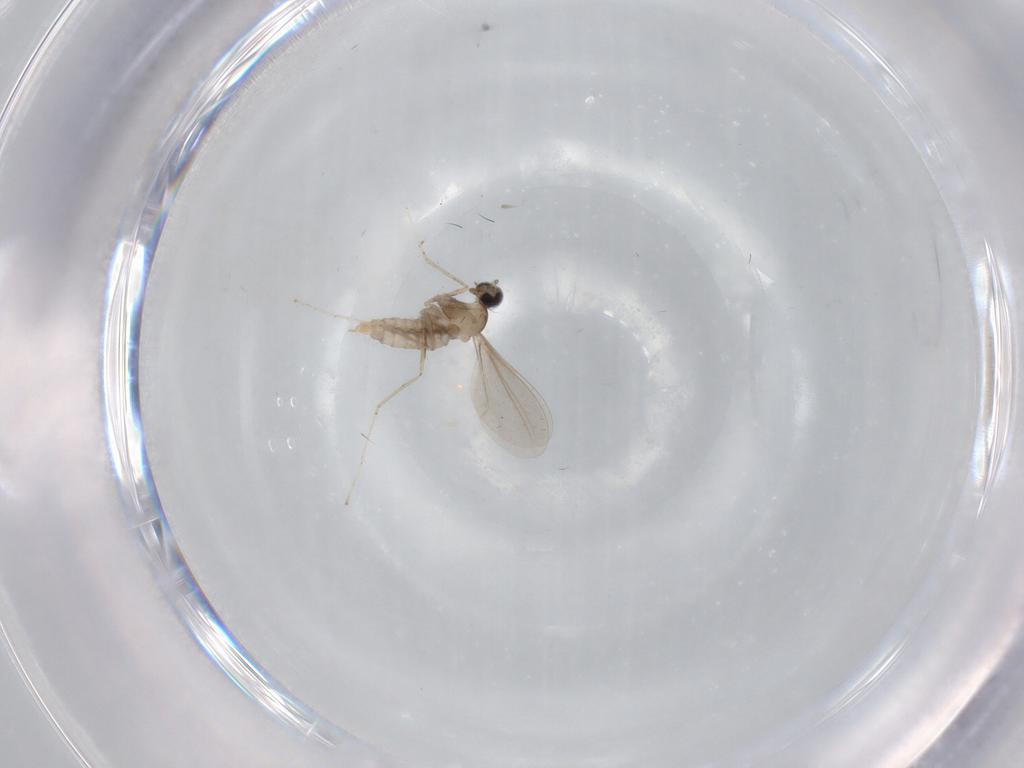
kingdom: Animalia
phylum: Arthropoda
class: Insecta
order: Diptera
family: Cecidomyiidae
